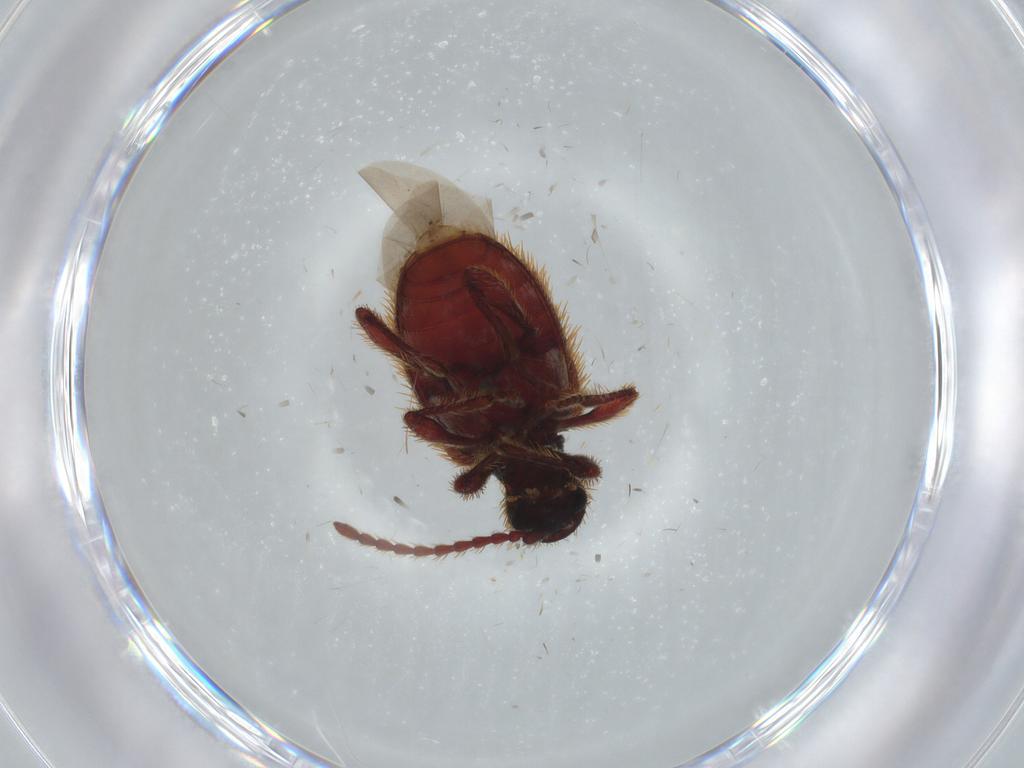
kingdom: Animalia
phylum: Arthropoda
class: Insecta
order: Coleoptera
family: Ptinidae
